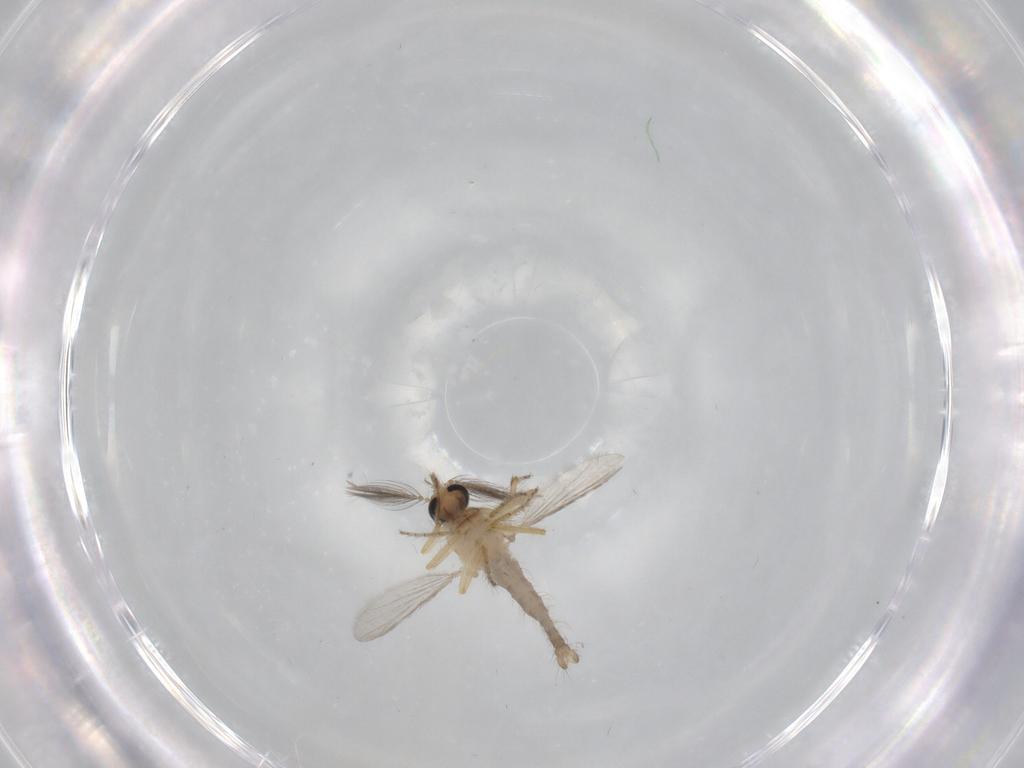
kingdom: Animalia
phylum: Arthropoda
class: Insecta
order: Diptera
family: Ceratopogonidae
